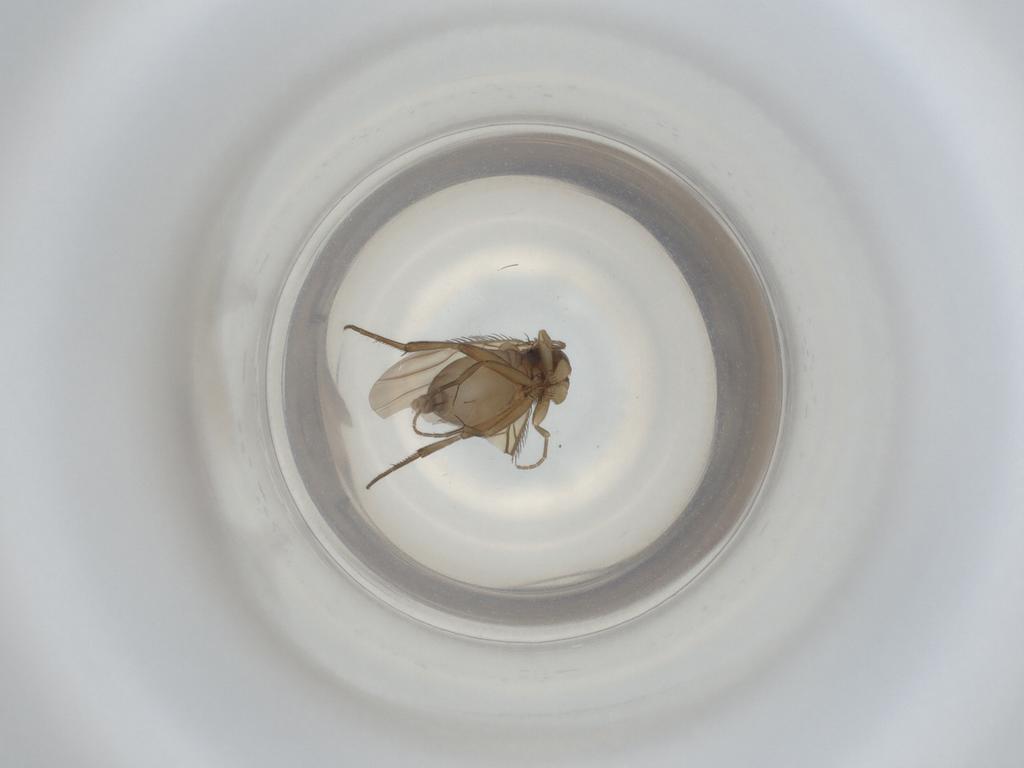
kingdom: Animalia
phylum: Arthropoda
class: Insecta
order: Diptera
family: Phoridae
